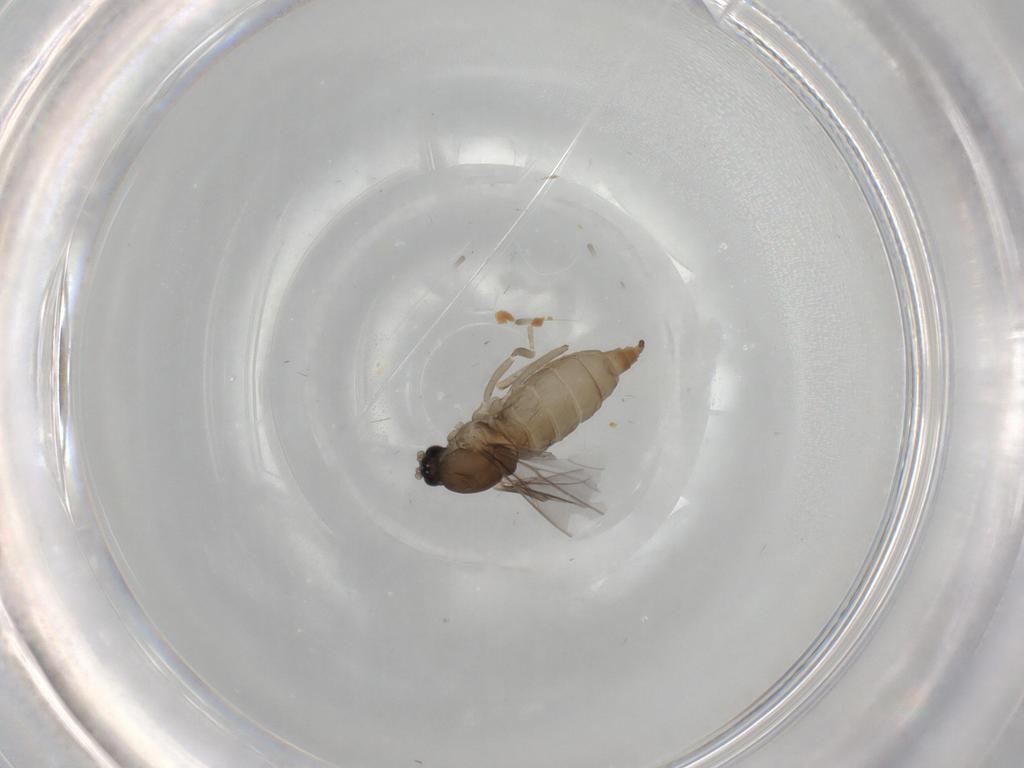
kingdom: Animalia
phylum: Arthropoda
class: Insecta
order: Diptera
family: Cecidomyiidae
